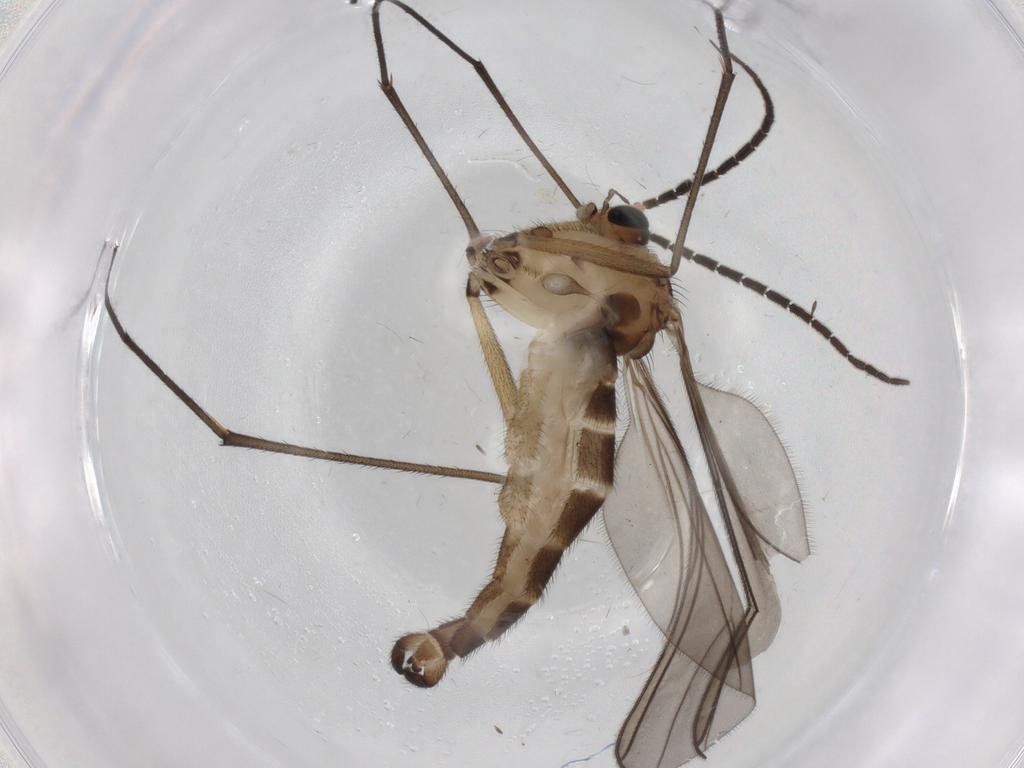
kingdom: Animalia
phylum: Arthropoda
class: Insecta
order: Diptera
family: Sciaridae
